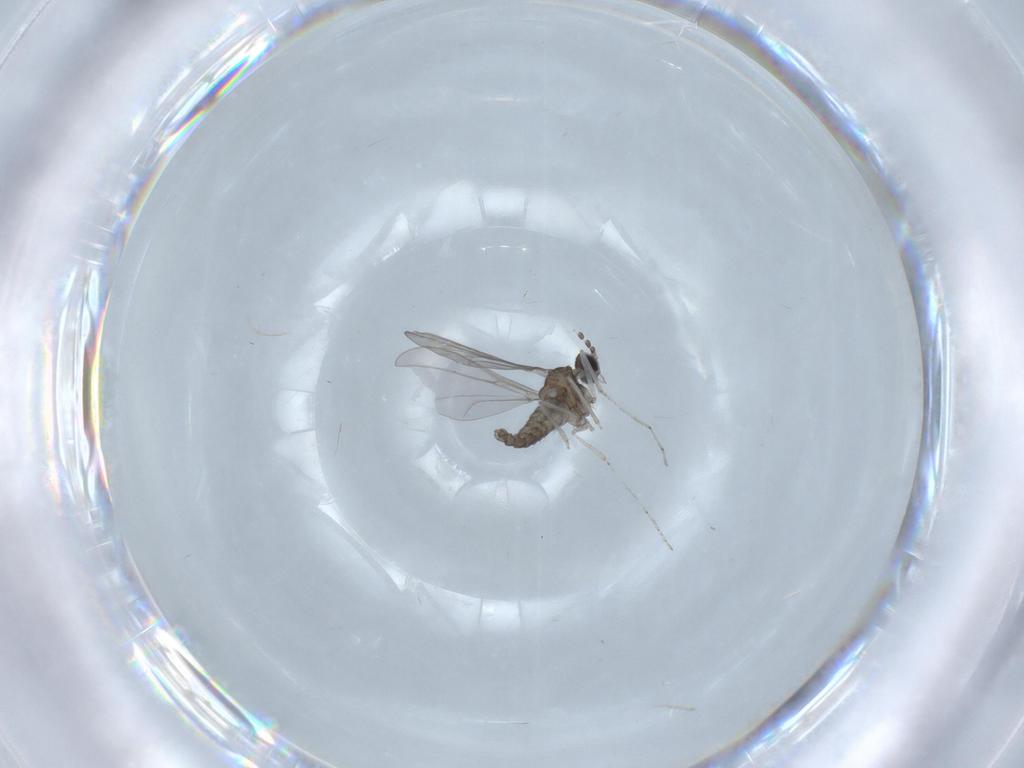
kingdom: Animalia
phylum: Arthropoda
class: Insecta
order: Diptera
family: Cecidomyiidae
